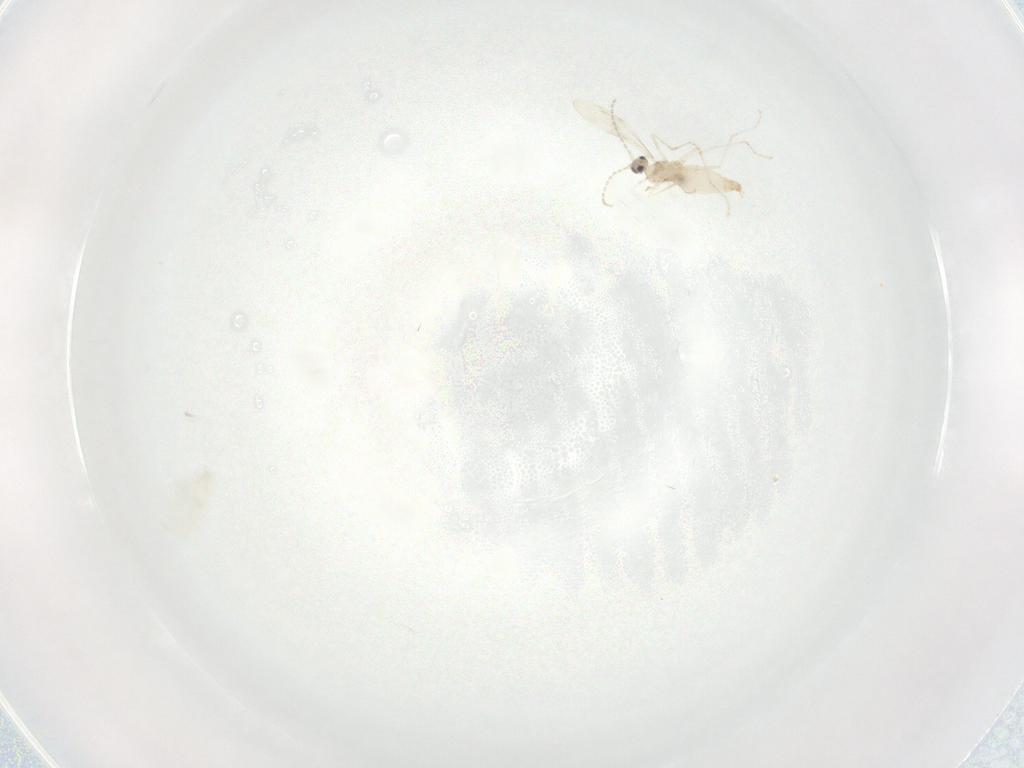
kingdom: Animalia
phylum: Arthropoda
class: Insecta
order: Diptera
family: Cecidomyiidae
